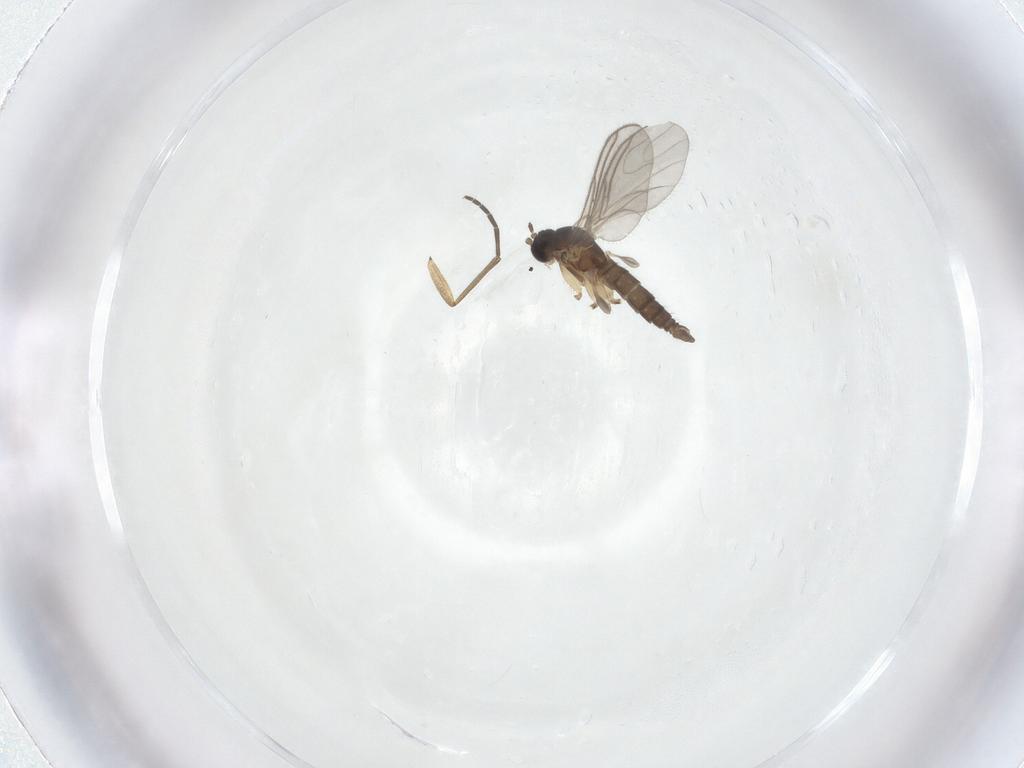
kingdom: Animalia
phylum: Arthropoda
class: Insecta
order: Diptera
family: Sciaridae
